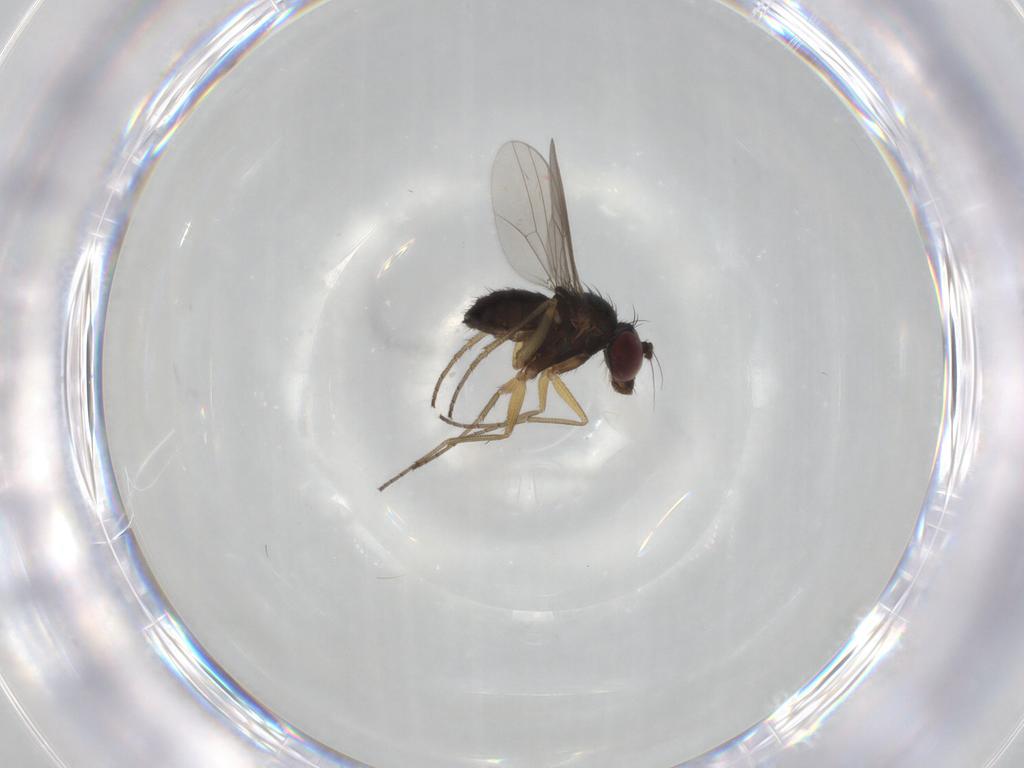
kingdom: Animalia
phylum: Arthropoda
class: Insecta
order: Diptera
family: Dolichopodidae
